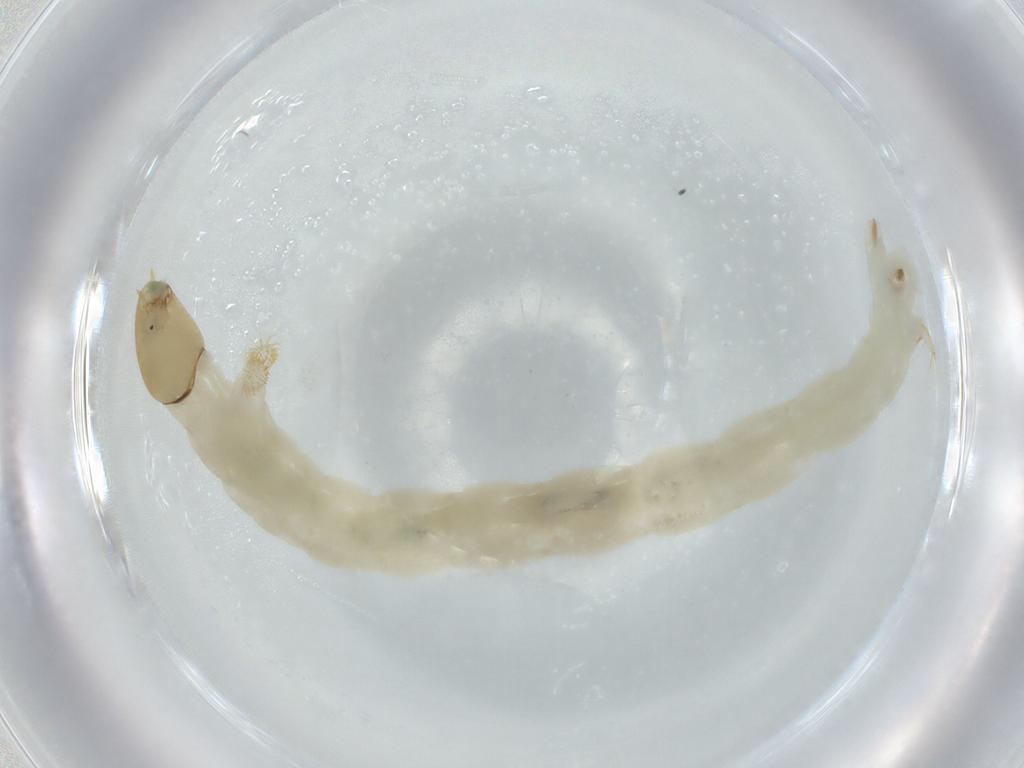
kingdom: Animalia
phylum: Arthropoda
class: Insecta
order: Diptera
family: Chironomidae
